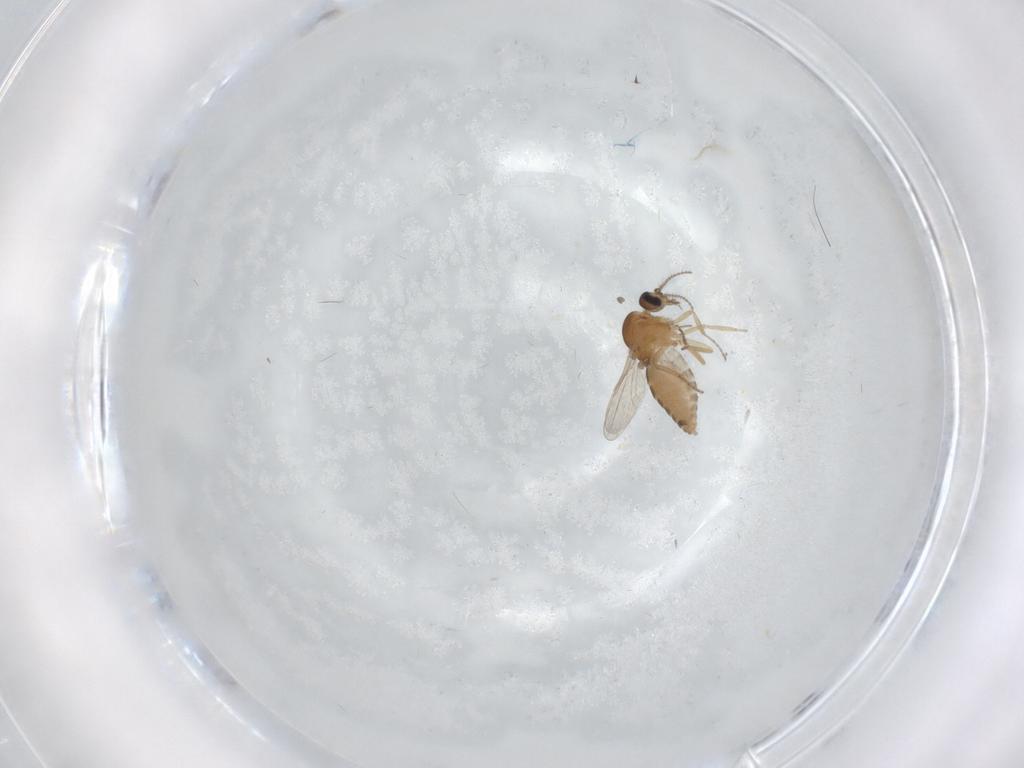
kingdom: Animalia
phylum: Arthropoda
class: Insecta
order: Diptera
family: Ceratopogonidae
